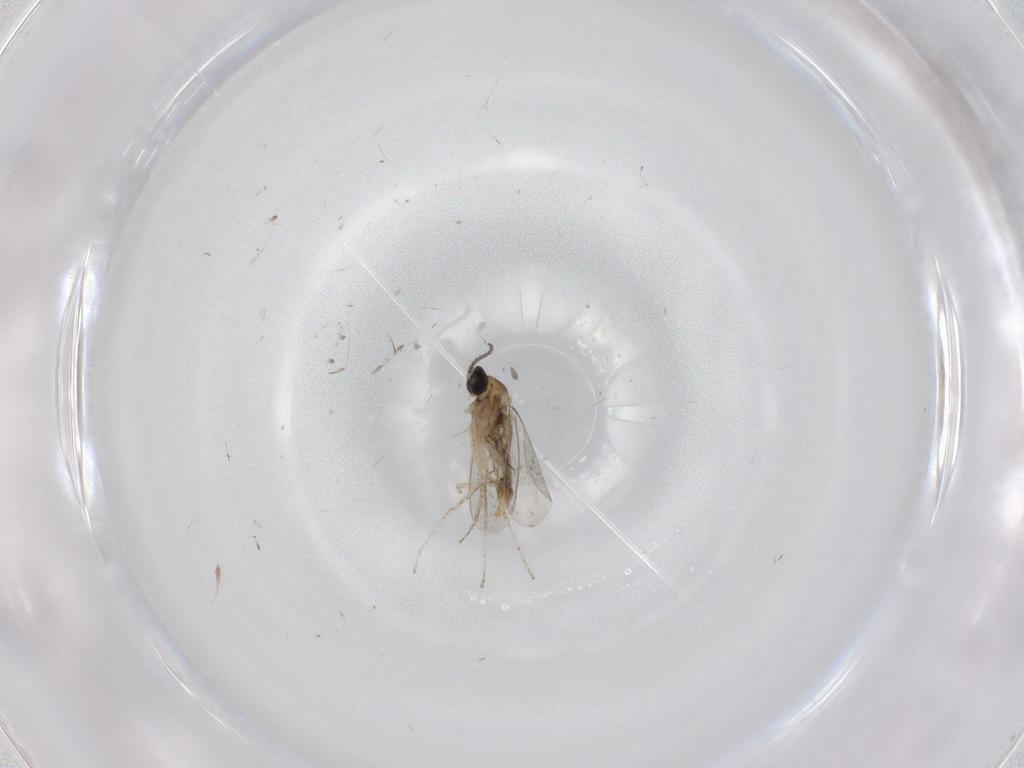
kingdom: Animalia
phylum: Arthropoda
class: Insecta
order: Diptera
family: Cecidomyiidae
